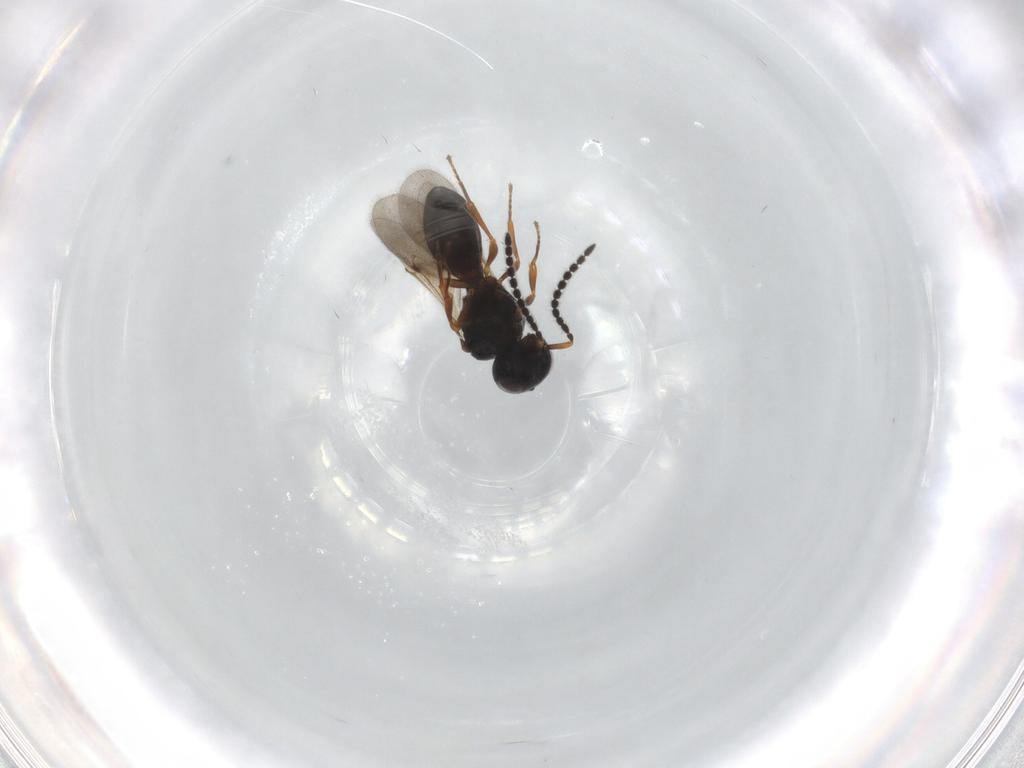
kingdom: Animalia
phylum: Arthropoda
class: Insecta
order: Hymenoptera
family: Scelionidae
